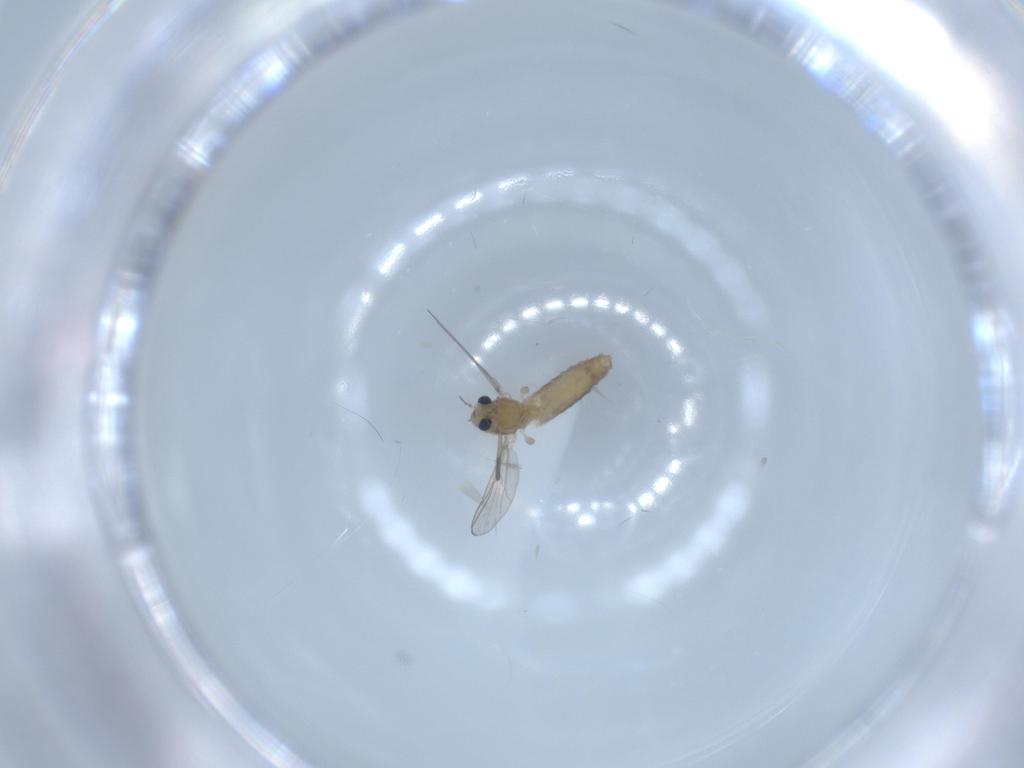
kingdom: Animalia
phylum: Arthropoda
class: Insecta
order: Diptera
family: Chironomidae
